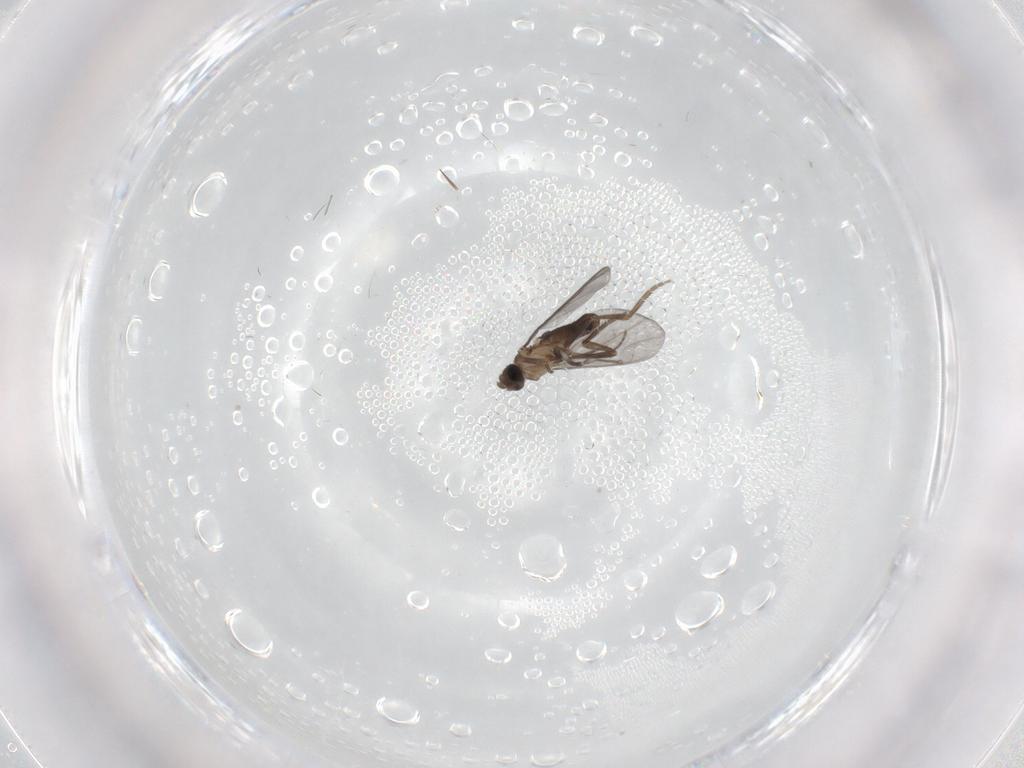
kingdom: Animalia
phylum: Arthropoda
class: Insecta
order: Diptera
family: Phoridae
